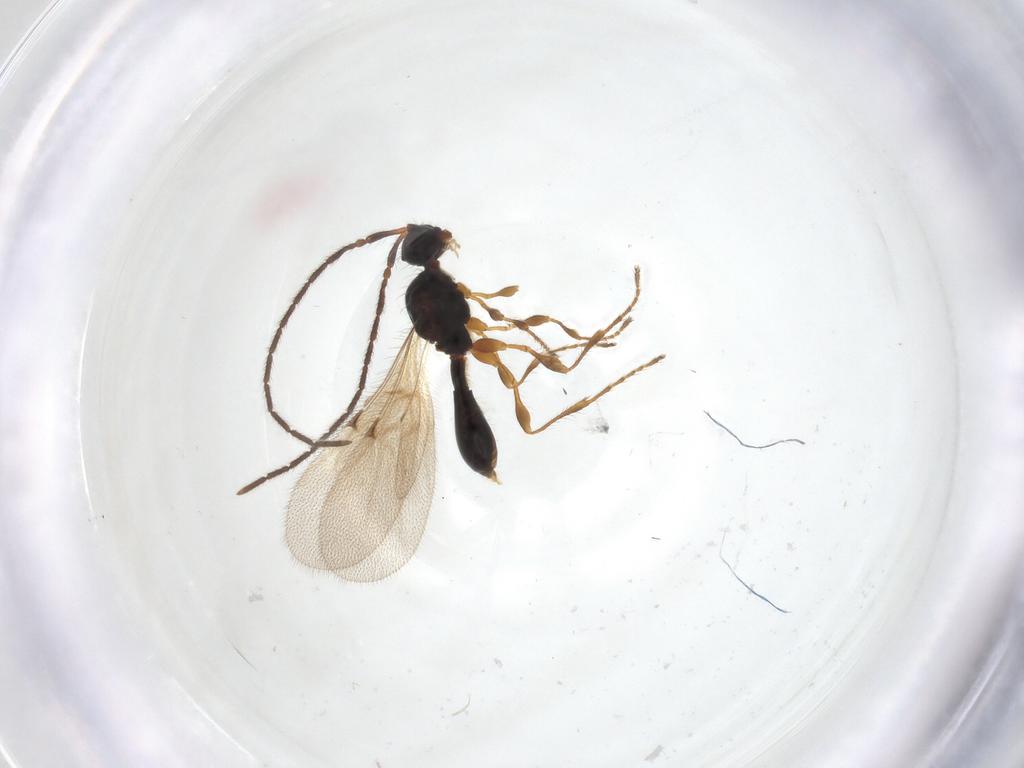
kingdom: Animalia
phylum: Arthropoda
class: Insecta
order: Hymenoptera
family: Diapriidae
